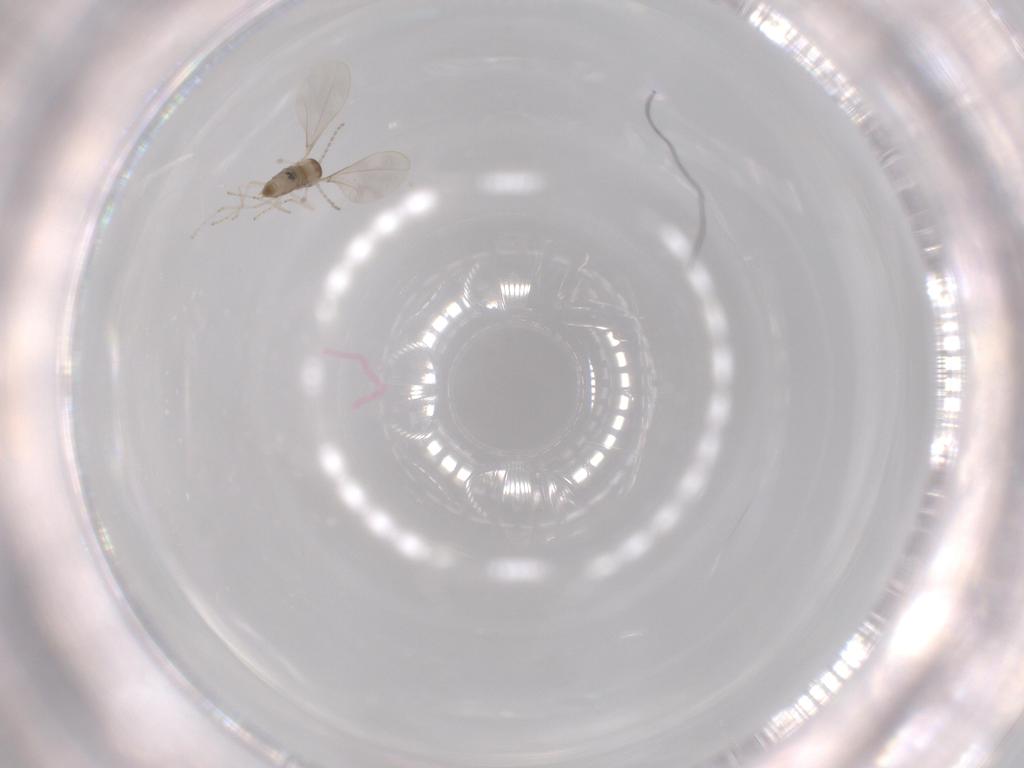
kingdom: Animalia
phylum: Arthropoda
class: Insecta
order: Diptera
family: Cecidomyiidae
